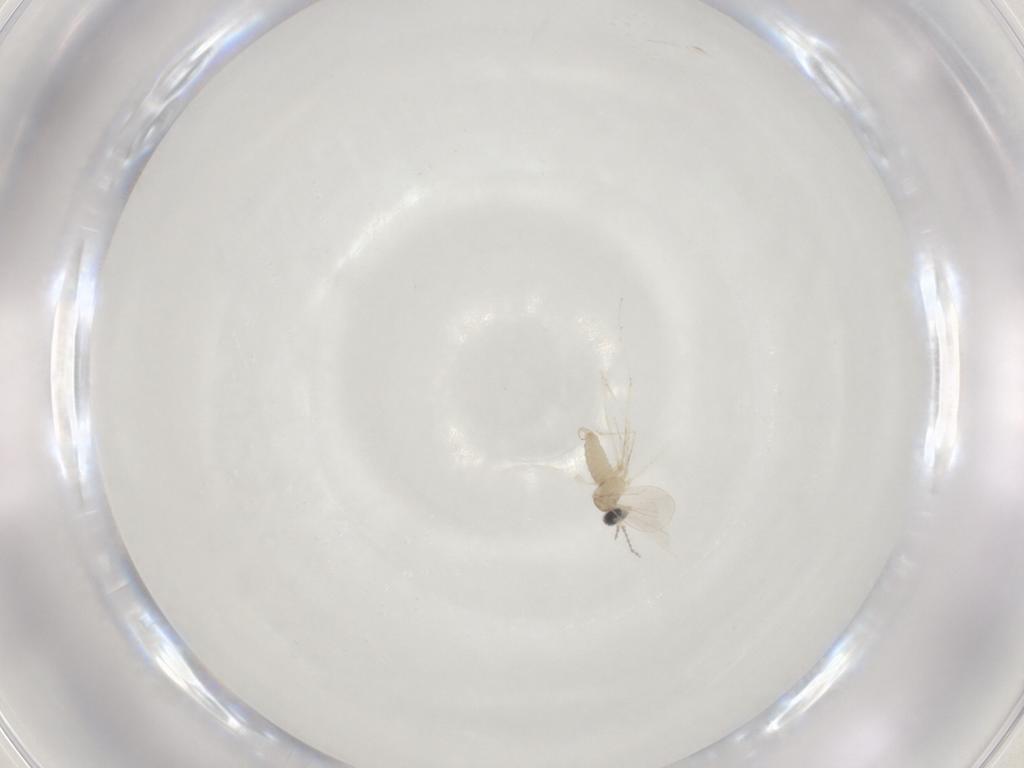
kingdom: Animalia
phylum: Arthropoda
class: Insecta
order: Diptera
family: Cecidomyiidae
